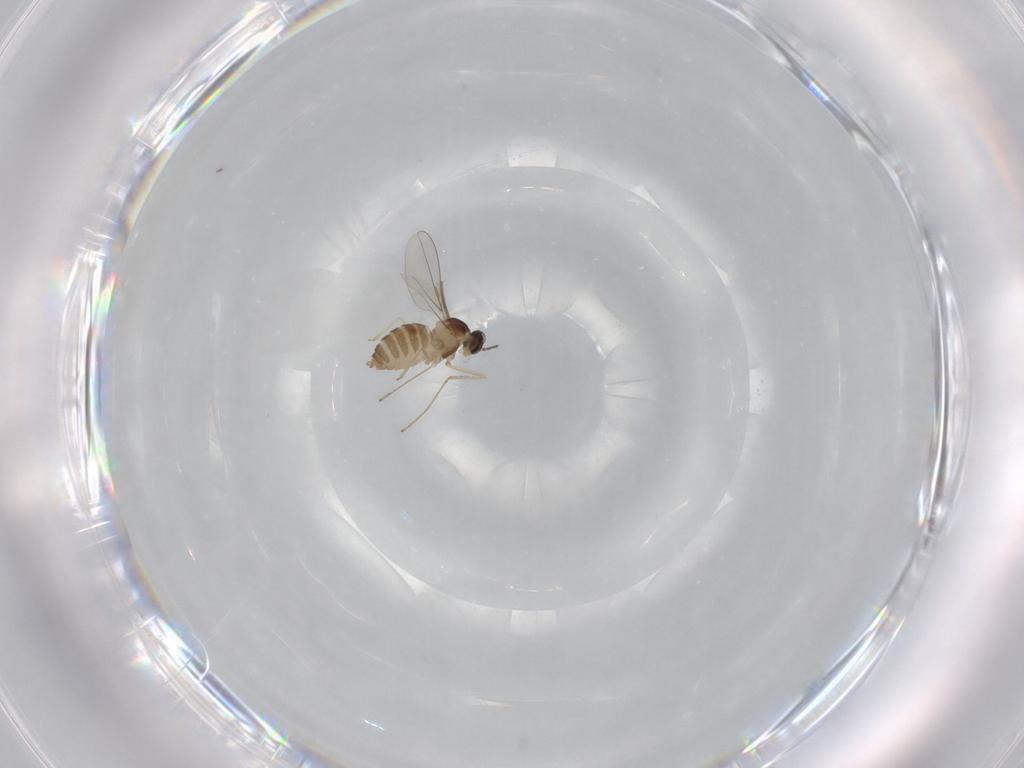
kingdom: Animalia
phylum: Arthropoda
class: Insecta
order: Diptera
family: Cecidomyiidae
